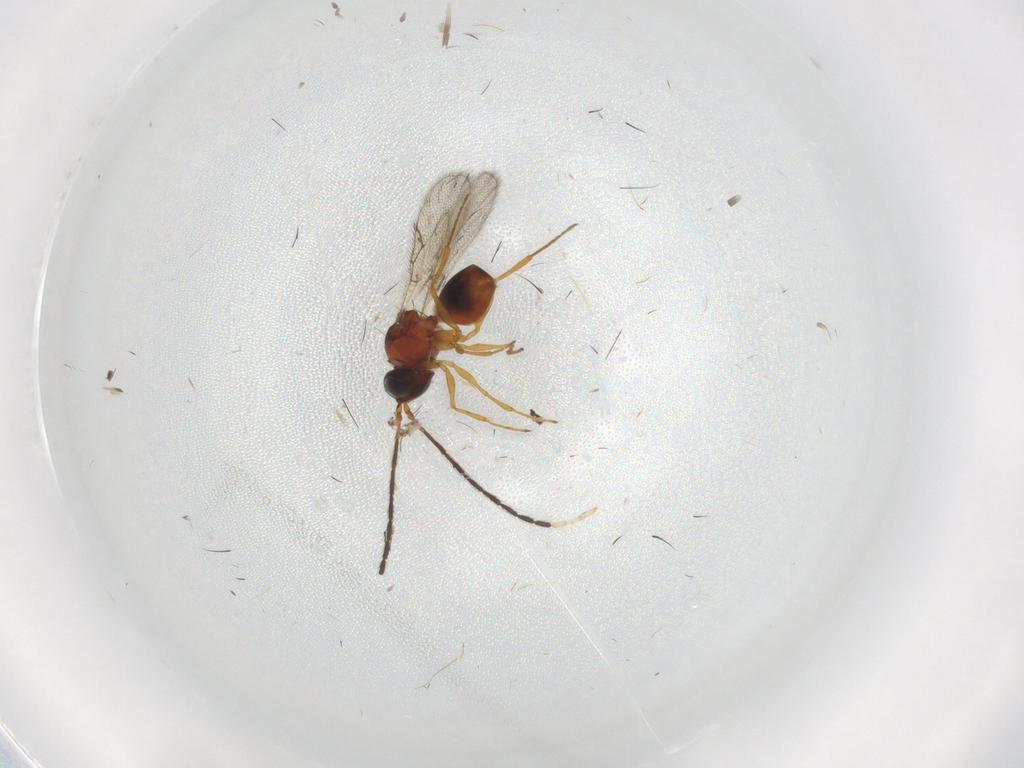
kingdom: Animalia
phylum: Arthropoda
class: Insecta
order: Hymenoptera
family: Figitidae
